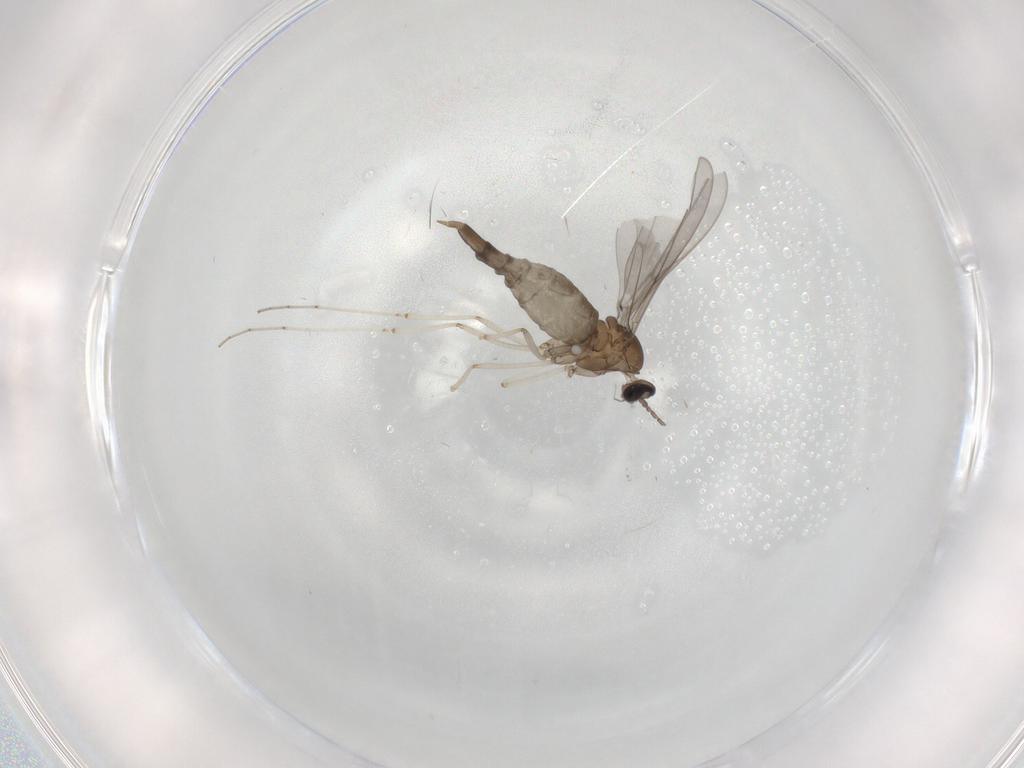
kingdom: Animalia
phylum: Arthropoda
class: Insecta
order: Diptera
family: Cecidomyiidae
